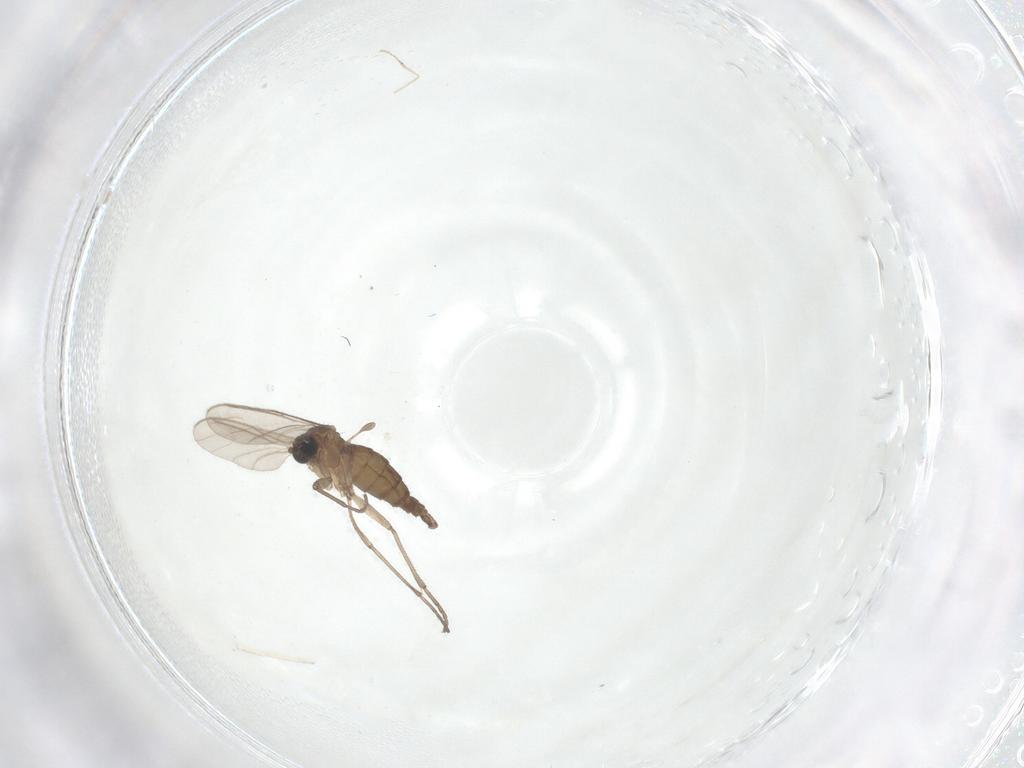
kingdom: Animalia
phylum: Arthropoda
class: Insecta
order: Diptera
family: Sciaridae
